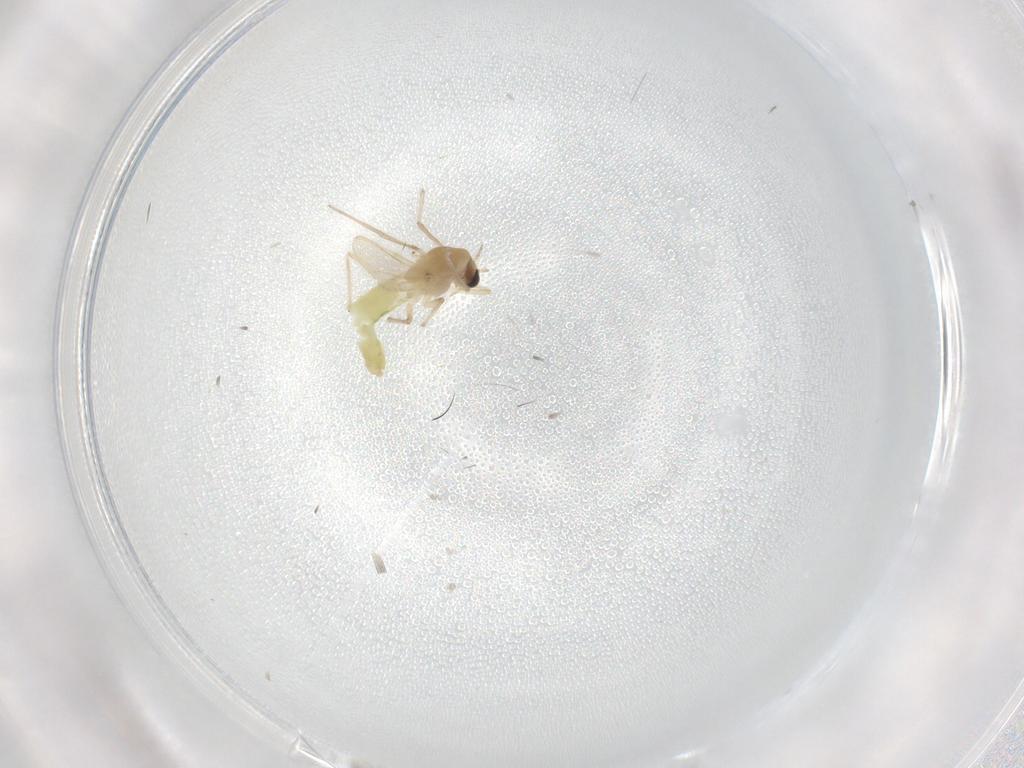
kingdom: Animalia
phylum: Arthropoda
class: Insecta
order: Diptera
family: Chironomidae
